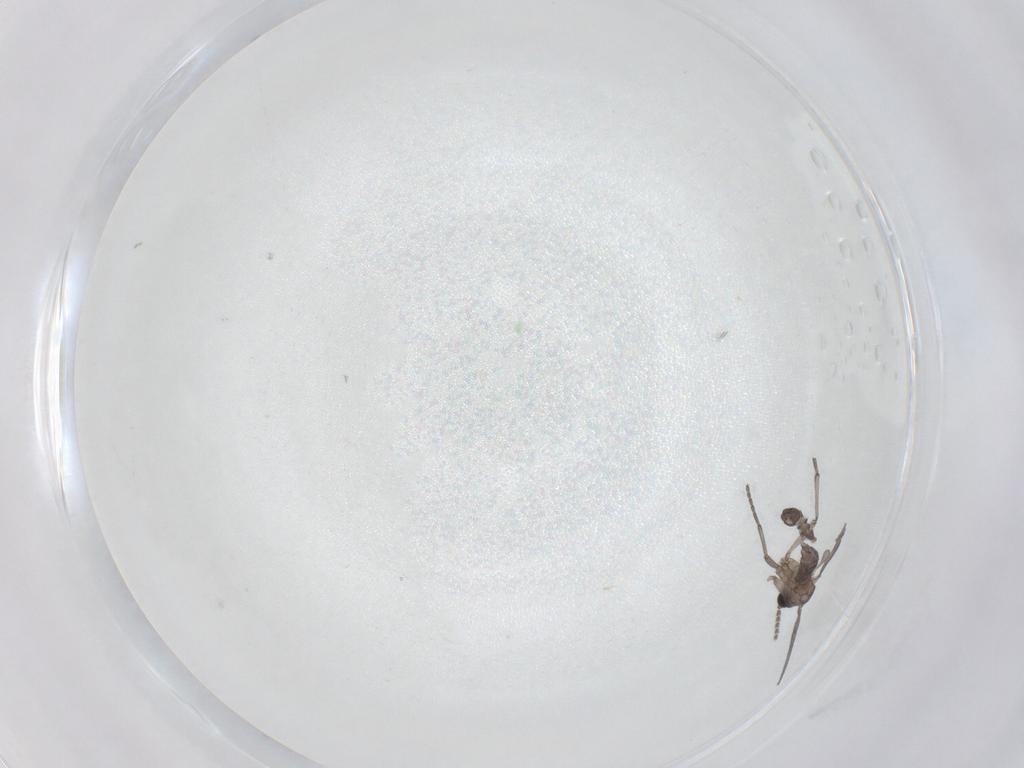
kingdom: Animalia
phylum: Arthropoda
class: Insecta
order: Diptera
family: Sciaridae
